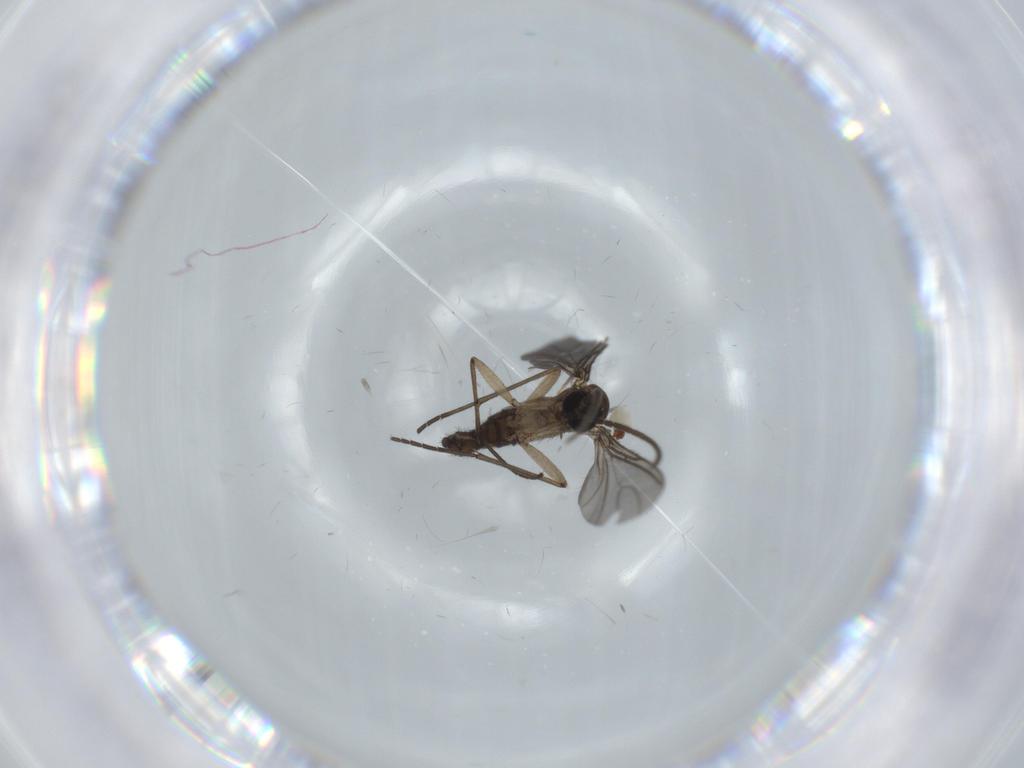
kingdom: Animalia
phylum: Arthropoda
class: Insecta
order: Diptera
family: Sciaridae
